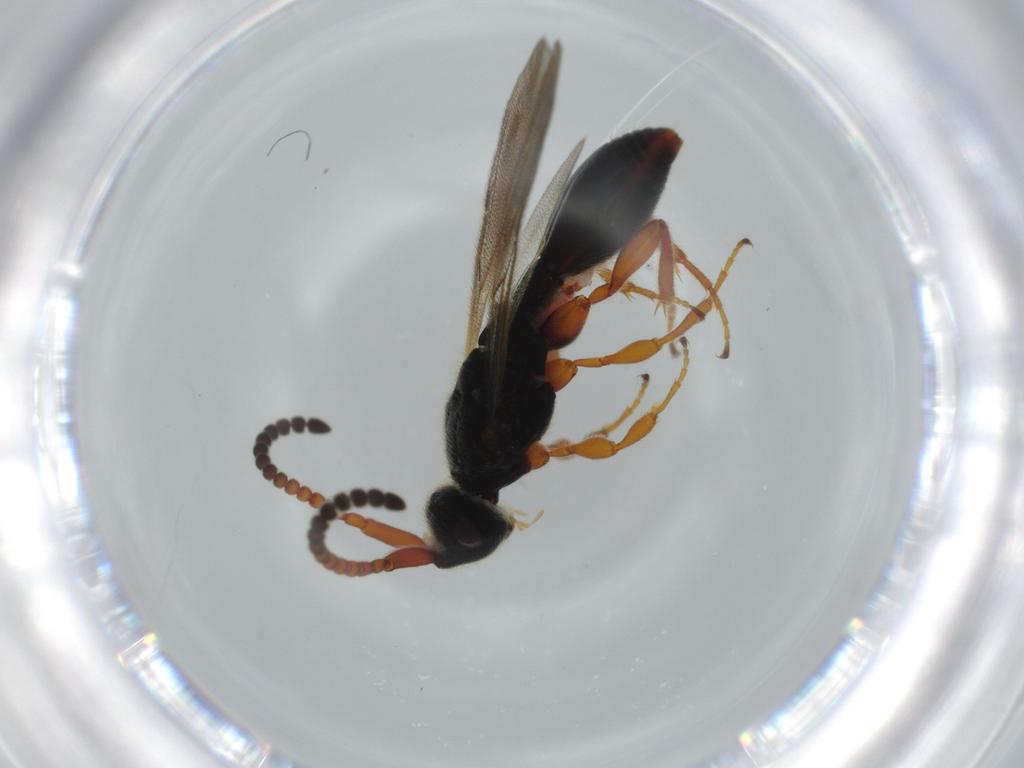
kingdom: Animalia
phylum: Arthropoda
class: Insecta
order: Hymenoptera
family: Diapriidae
